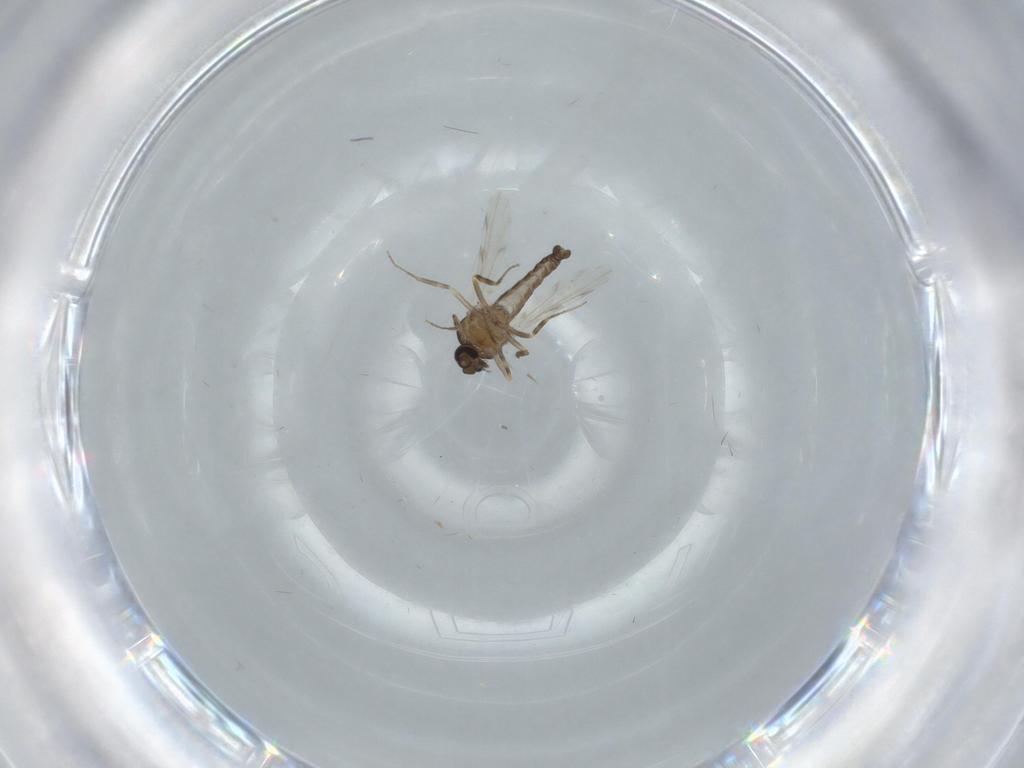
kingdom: Animalia
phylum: Arthropoda
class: Insecta
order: Diptera
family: Ceratopogonidae
